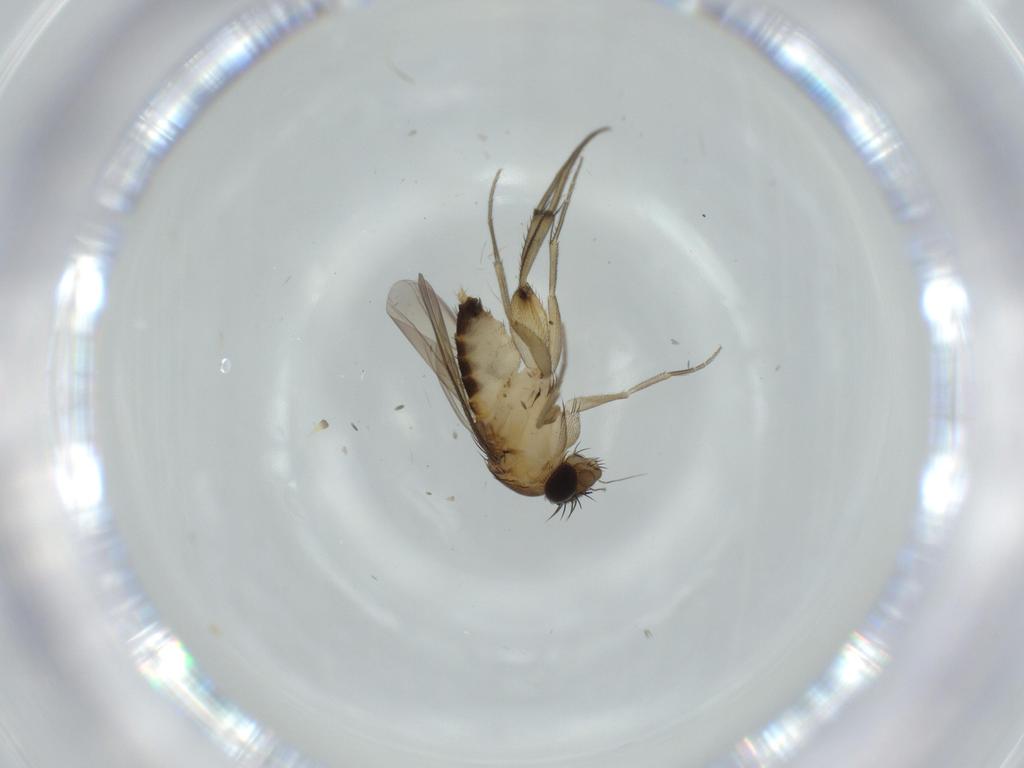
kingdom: Animalia
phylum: Arthropoda
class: Insecta
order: Diptera
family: Phoridae
